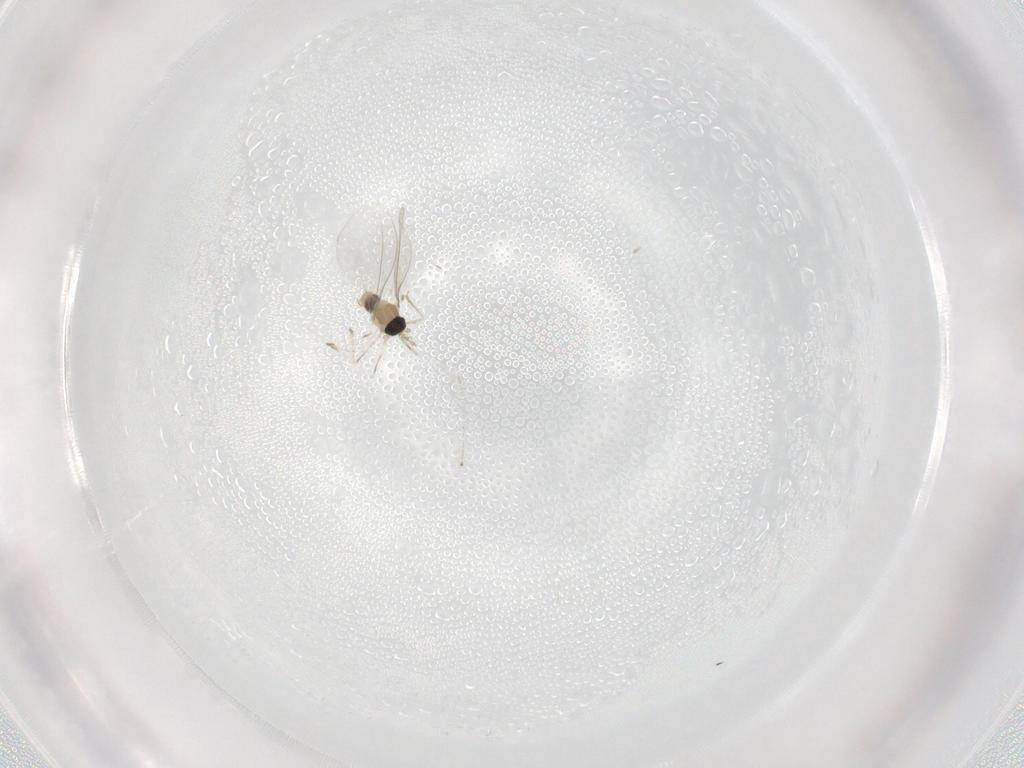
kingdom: Animalia
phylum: Arthropoda
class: Insecta
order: Diptera
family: Cecidomyiidae
